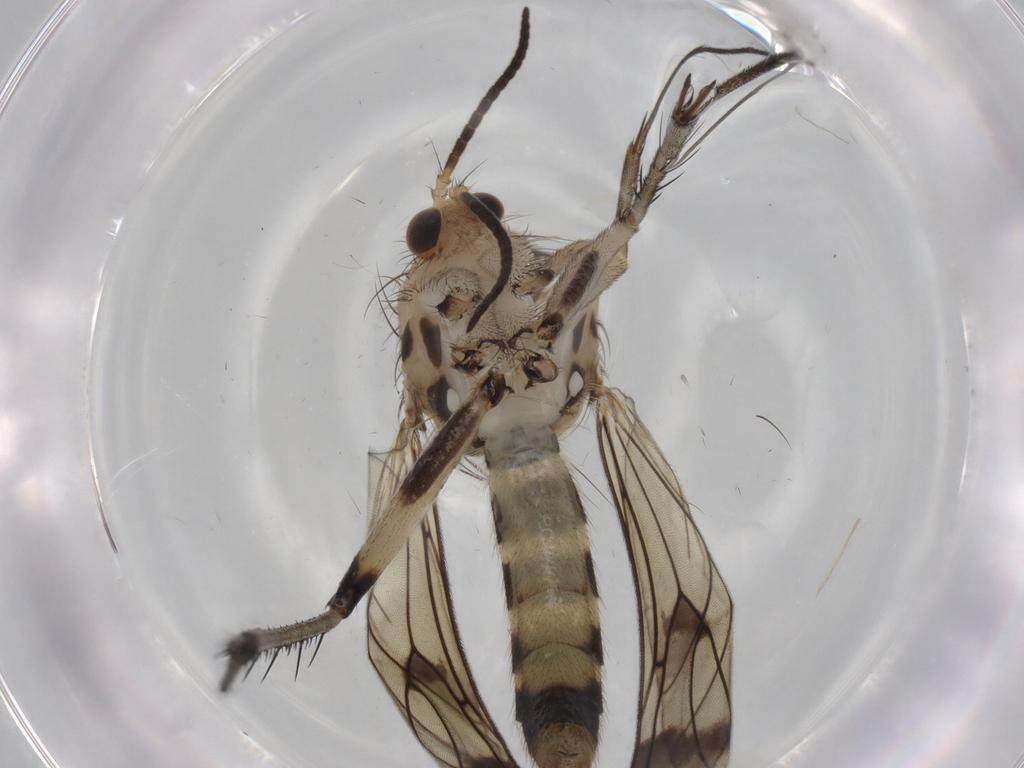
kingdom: Animalia
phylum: Arthropoda
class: Insecta
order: Diptera
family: Mycetophilidae
